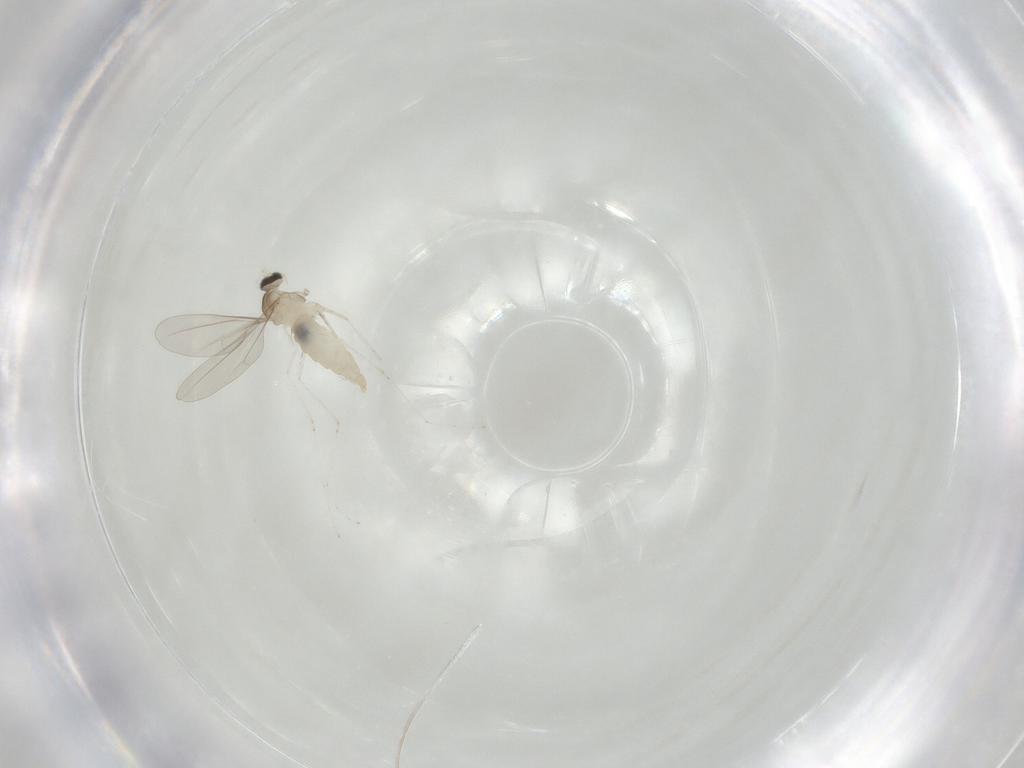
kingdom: Animalia
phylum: Arthropoda
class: Insecta
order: Diptera
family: Cecidomyiidae
